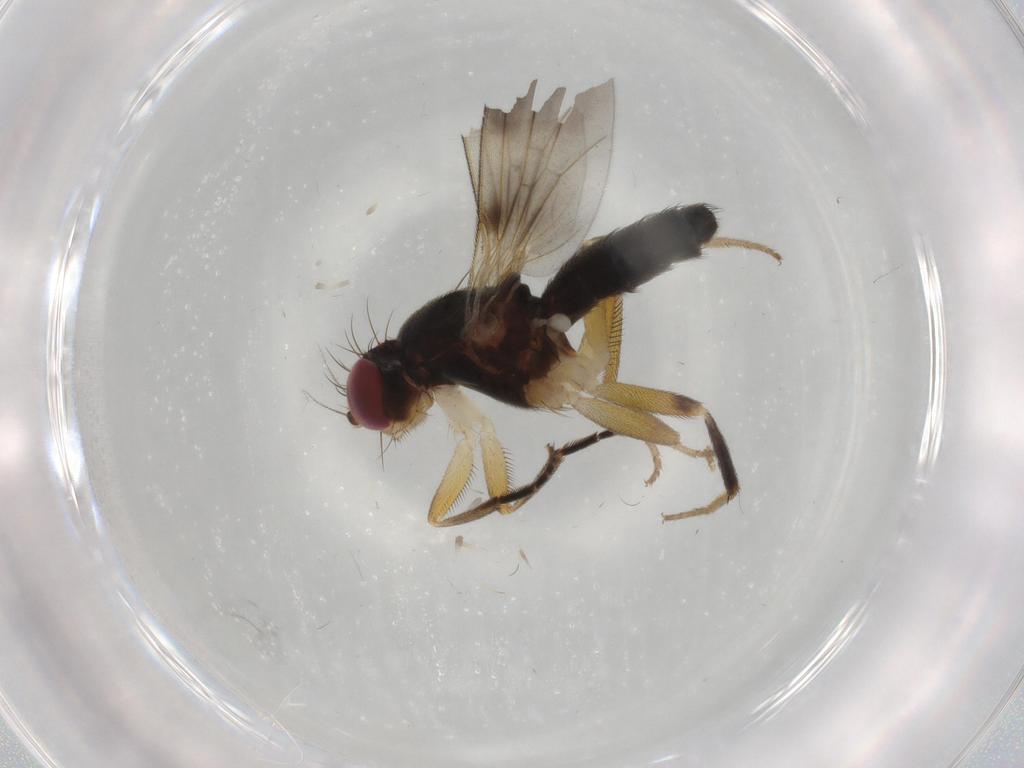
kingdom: Animalia
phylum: Arthropoda
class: Insecta
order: Diptera
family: Clusiidae
